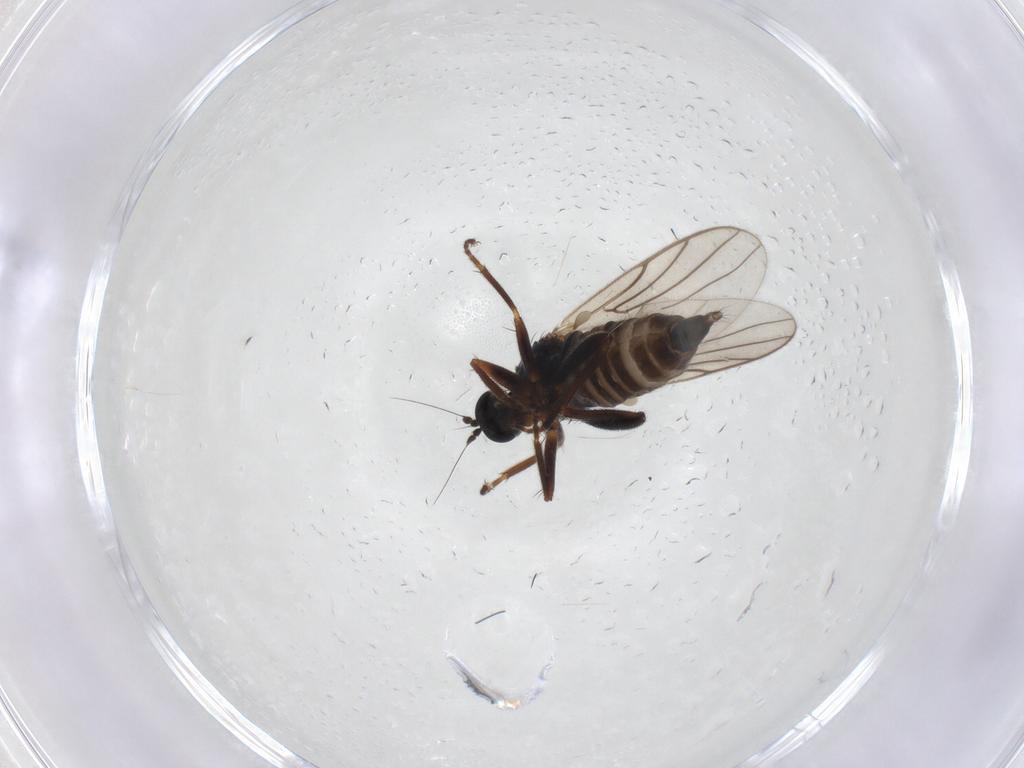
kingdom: Animalia
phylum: Arthropoda
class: Insecta
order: Diptera
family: Hybotidae
